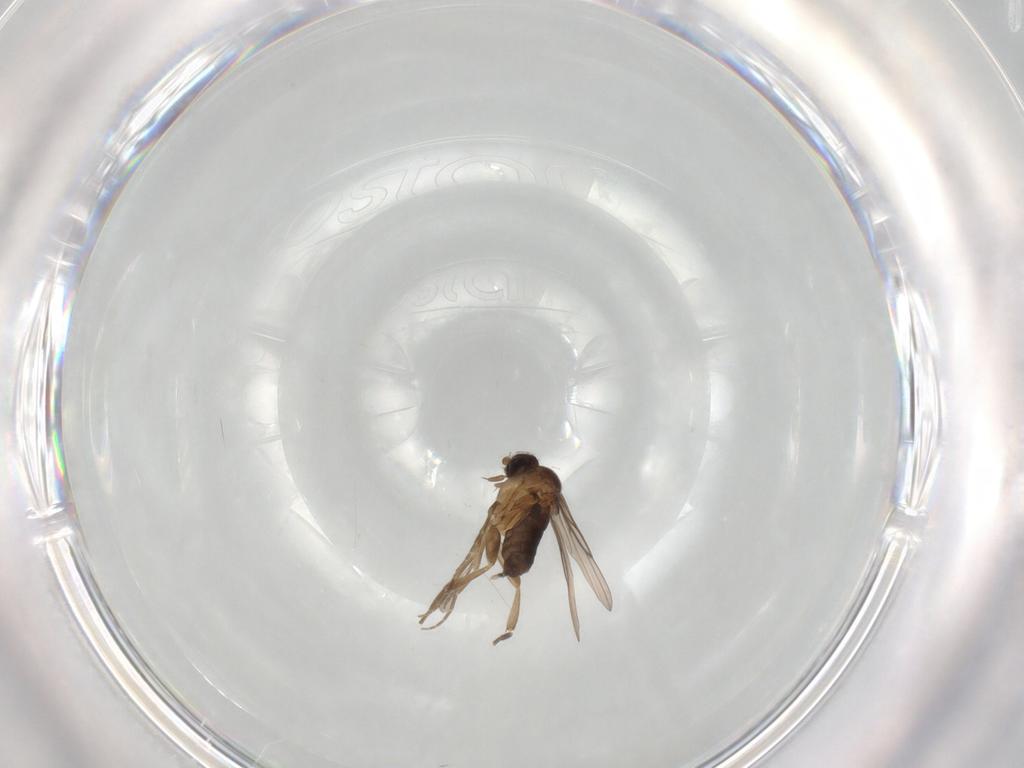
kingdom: Animalia
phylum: Arthropoda
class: Insecta
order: Diptera
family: Phoridae
